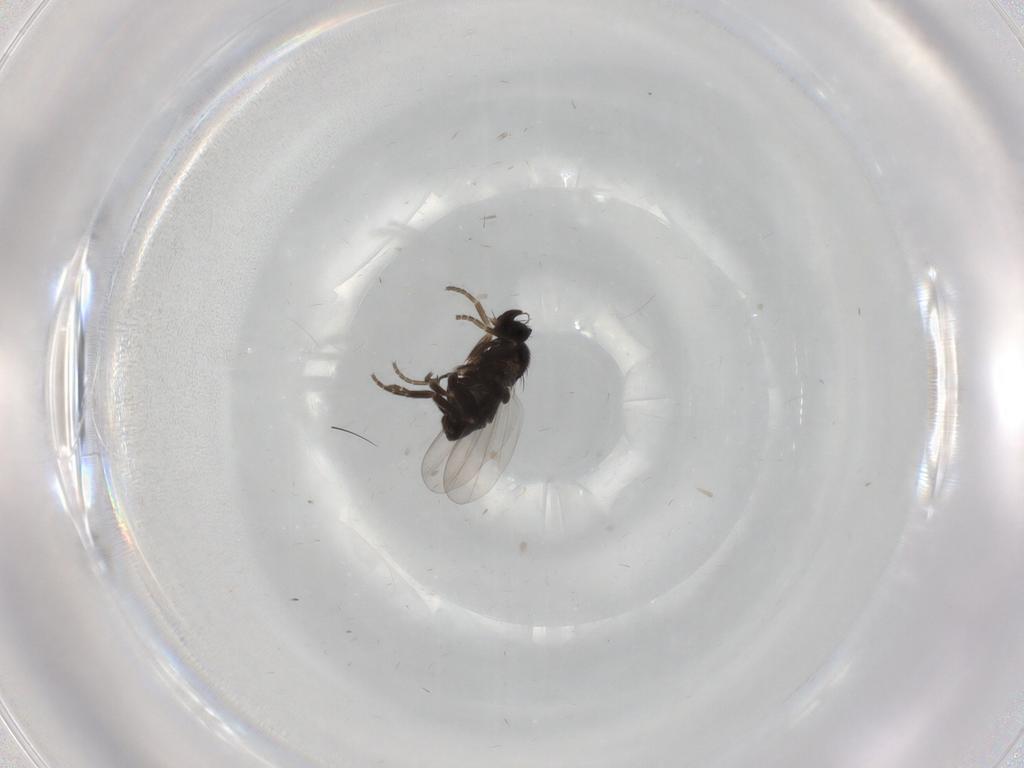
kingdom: Animalia
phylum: Arthropoda
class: Insecta
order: Diptera
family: Phoridae
